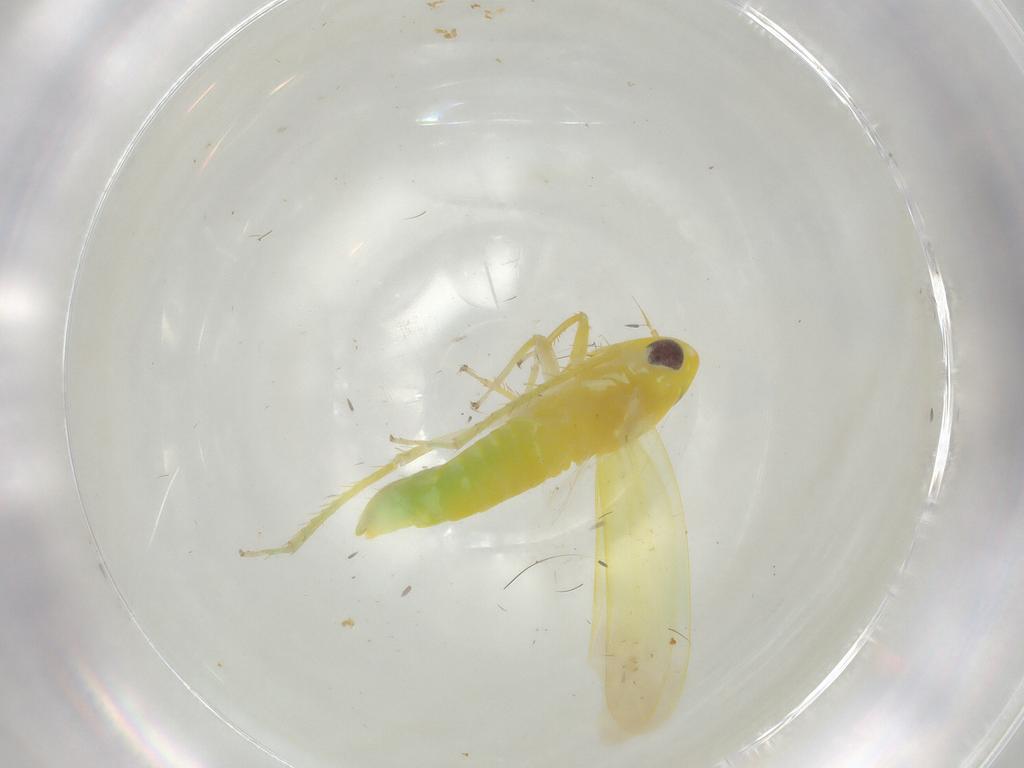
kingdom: Animalia
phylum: Arthropoda
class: Insecta
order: Hemiptera
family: Cicadellidae
